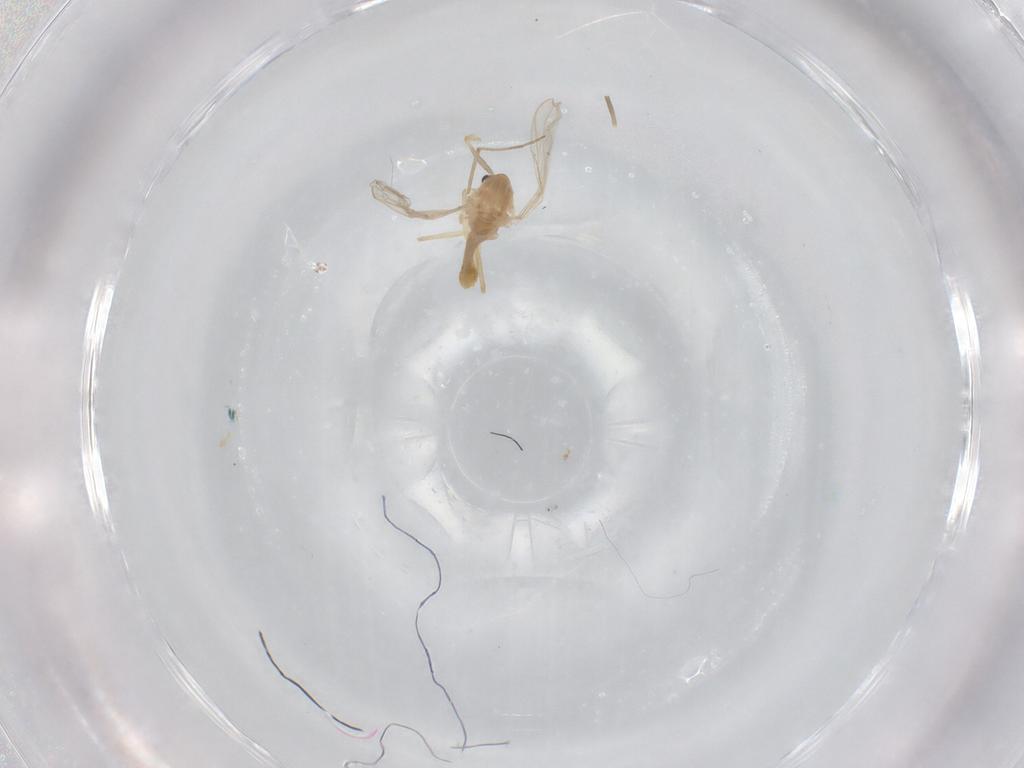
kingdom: Animalia
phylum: Arthropoda
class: Insecta
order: Diptera
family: Chironomidae
